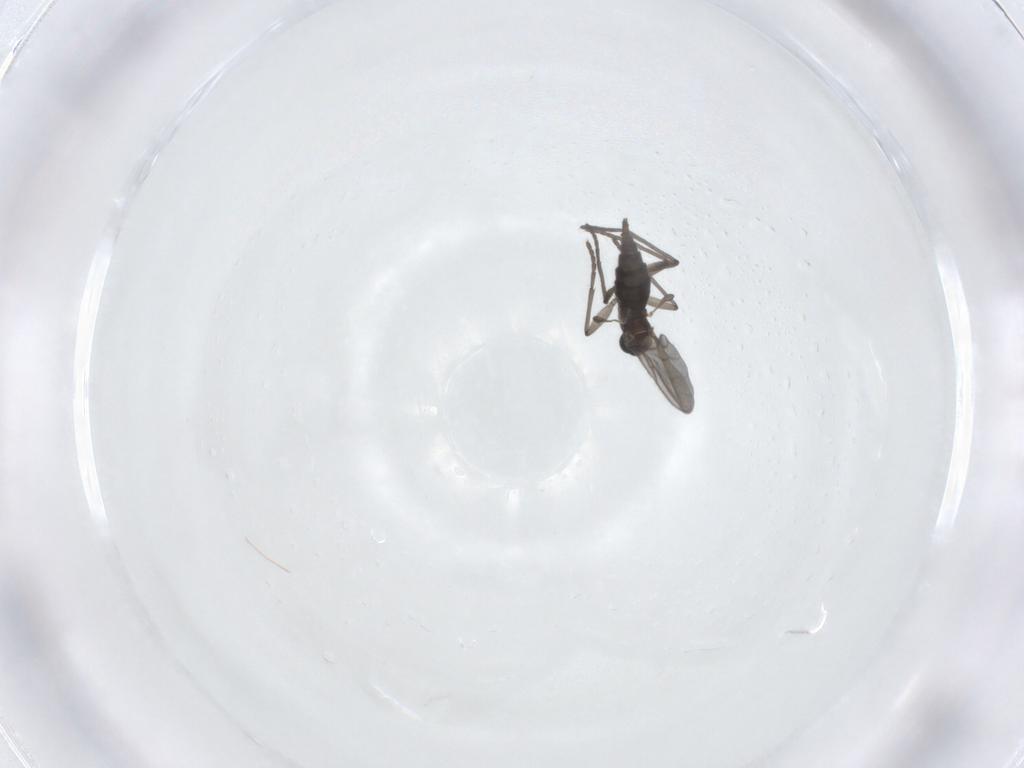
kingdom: Animalia
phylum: Arthropoda
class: Insecta
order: Diptera
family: Sciaridae
